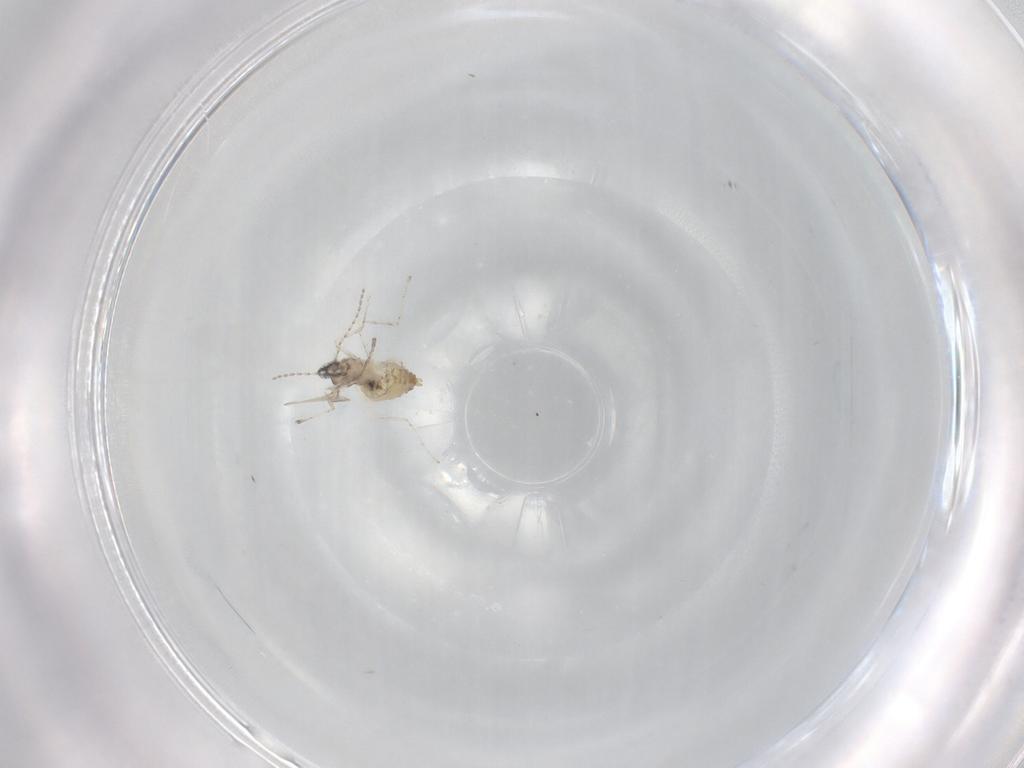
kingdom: Animalia
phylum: Arthropoda
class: Insecta
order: Diptera
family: Cecidomyiidae
